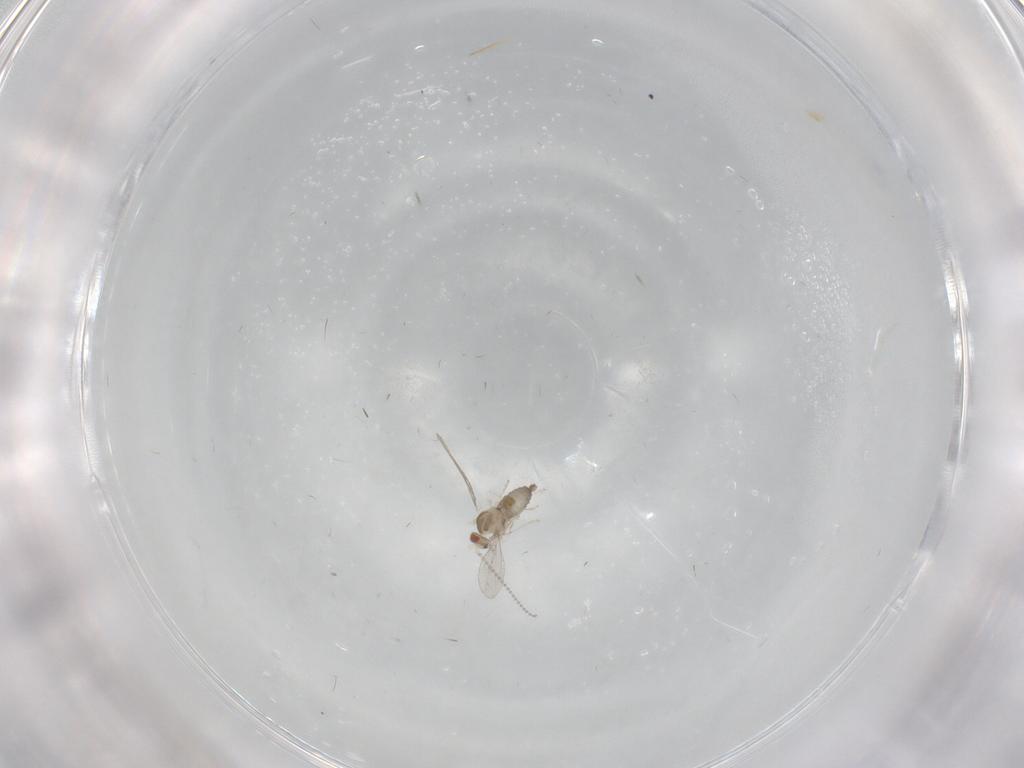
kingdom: Animalia
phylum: Arthropoda
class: Insecta
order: Diptera
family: Cecidomyiidae
